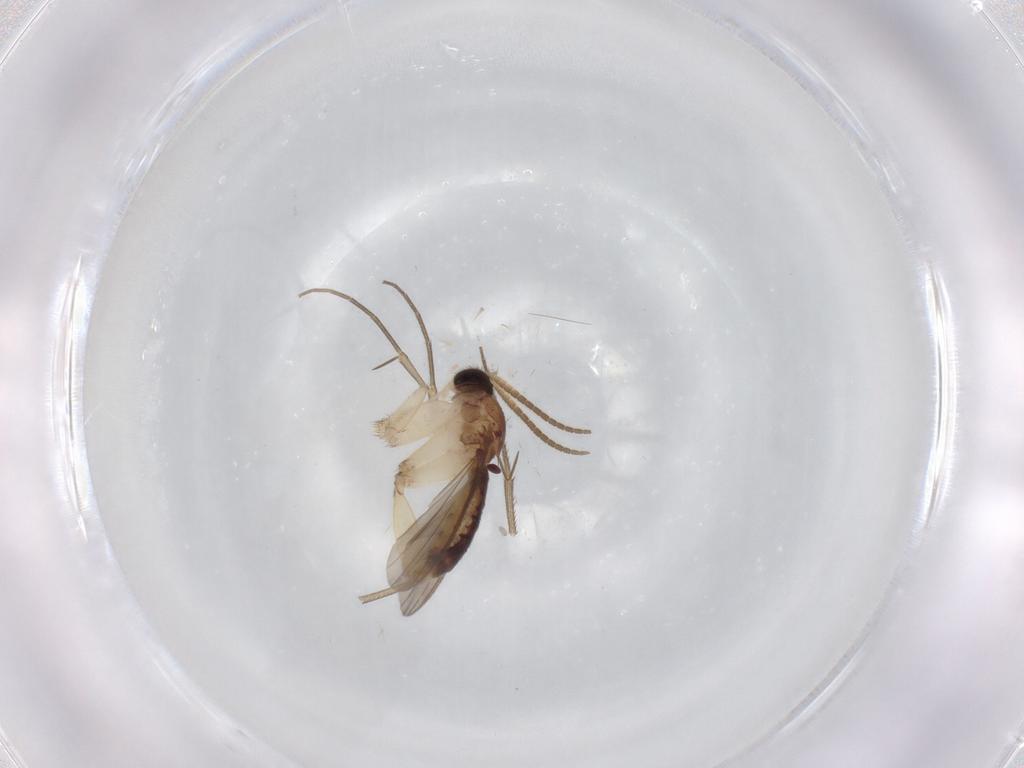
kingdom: Animalia
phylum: Arthropoda
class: Insecta
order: Diptera
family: Mycetophilidae
